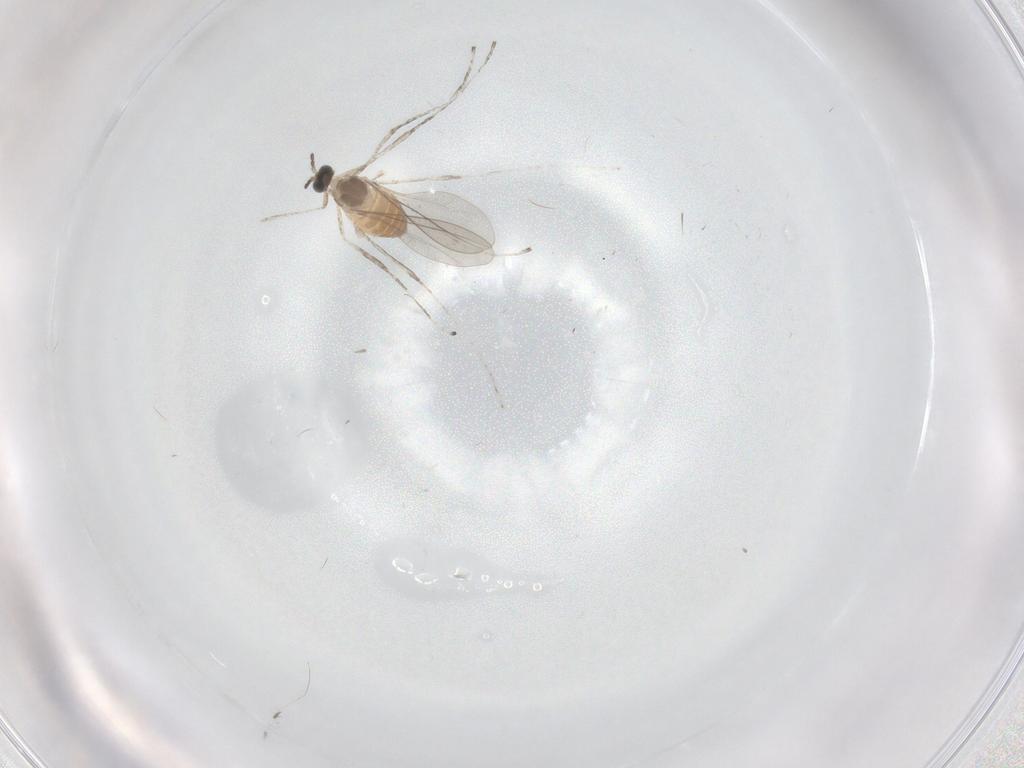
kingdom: Animalia
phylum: Arthropoda
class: Insecta
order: Diptera
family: Cecidomyiidae
